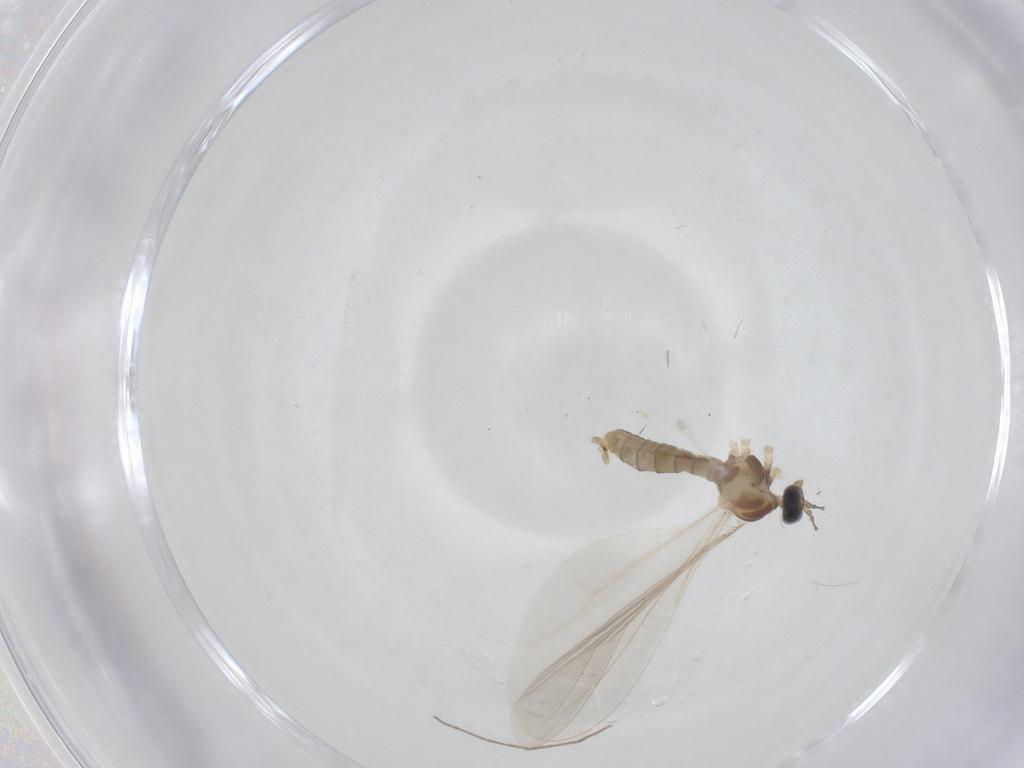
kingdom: Animalia
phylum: Arthropoda
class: Insecta
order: Diptera
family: Cecidomyiidae
